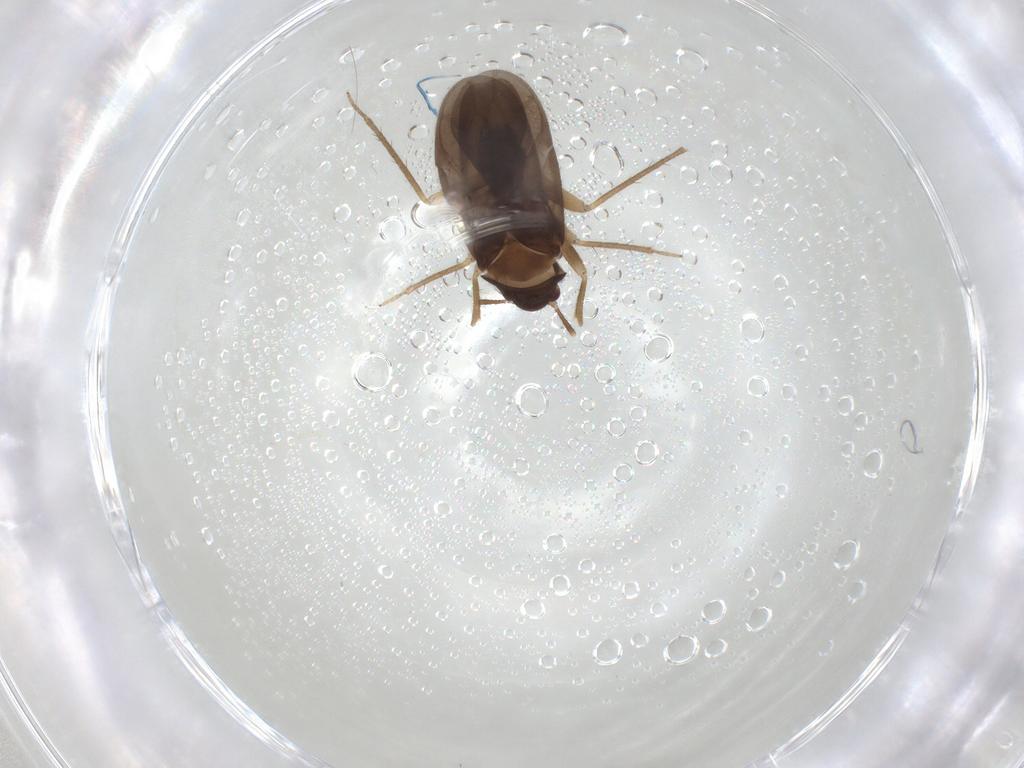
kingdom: Animalia
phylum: Arthropoda
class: Insecta
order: Hemiptera
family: Ceratocombidae
